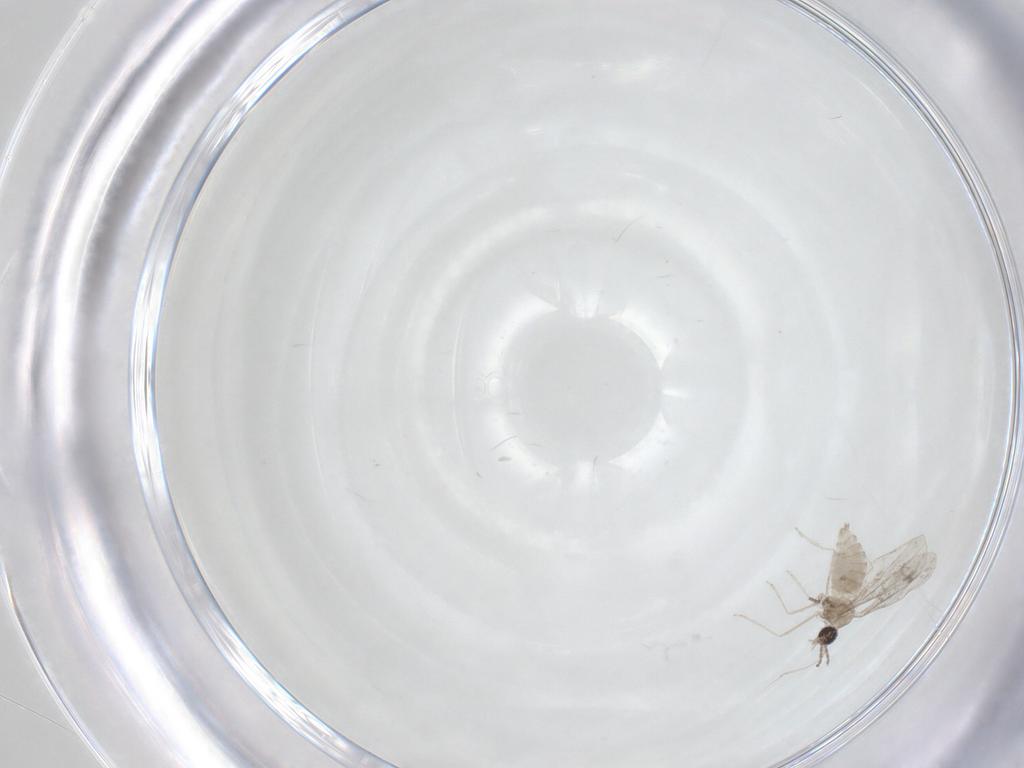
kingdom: Animalia
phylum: Arthropoda
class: Insecta
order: Diptera
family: Cecidomyiidae
